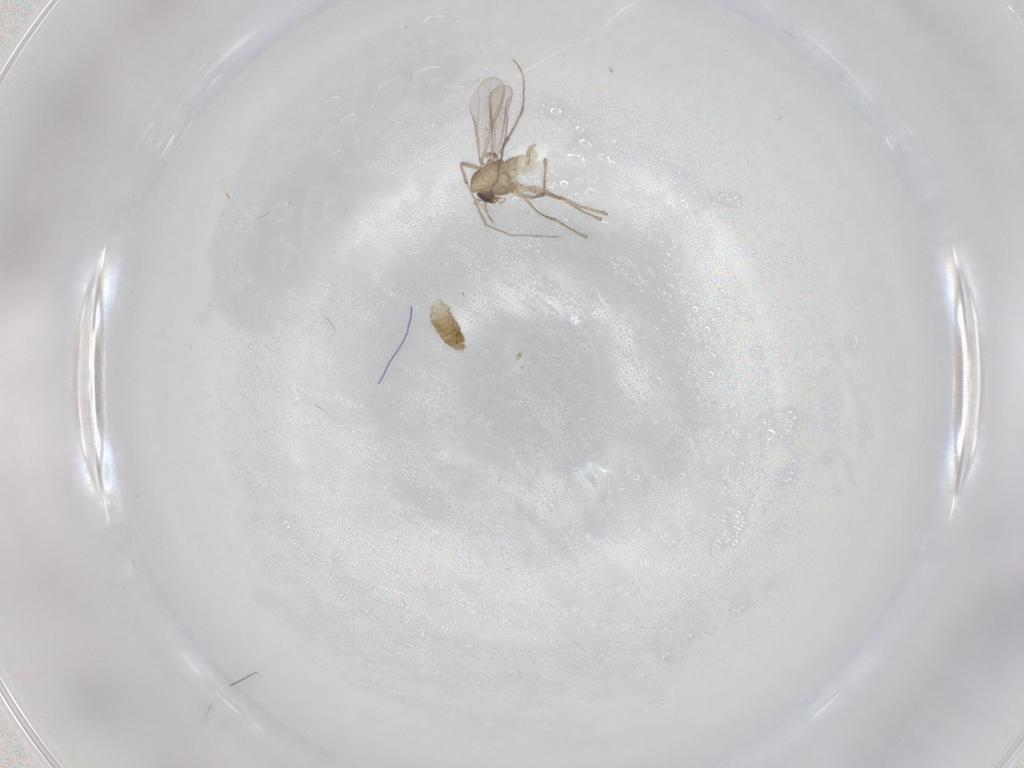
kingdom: Animalia
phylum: Arthropoda
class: Insecta
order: Diptera
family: Chironomidae
